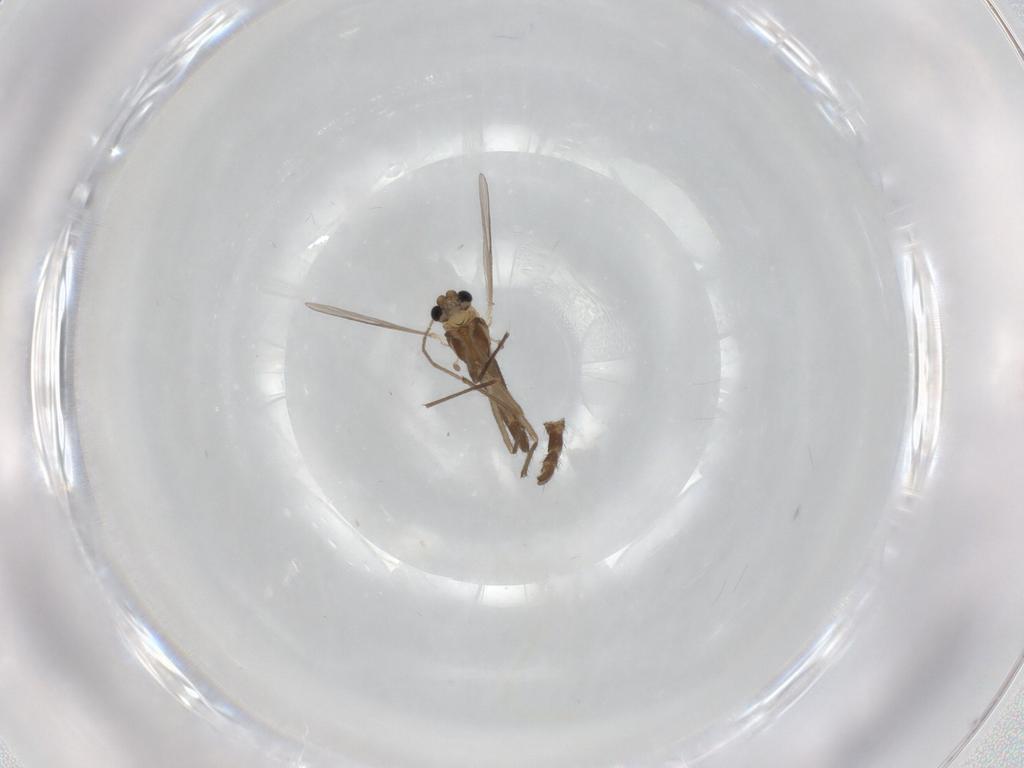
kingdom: Animalia
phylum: Arthropoda
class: Insecta
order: Diptera
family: Chironomidae
